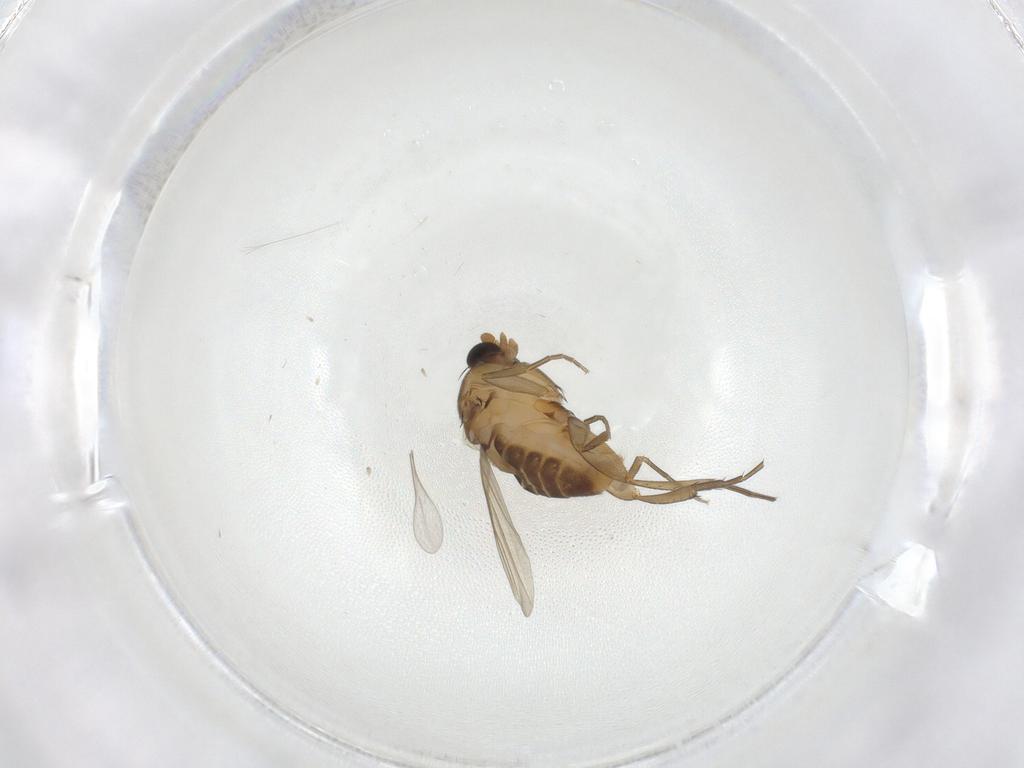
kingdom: Animalia
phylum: Arthropoda
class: Insecta
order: Diptera
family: Phoridae
